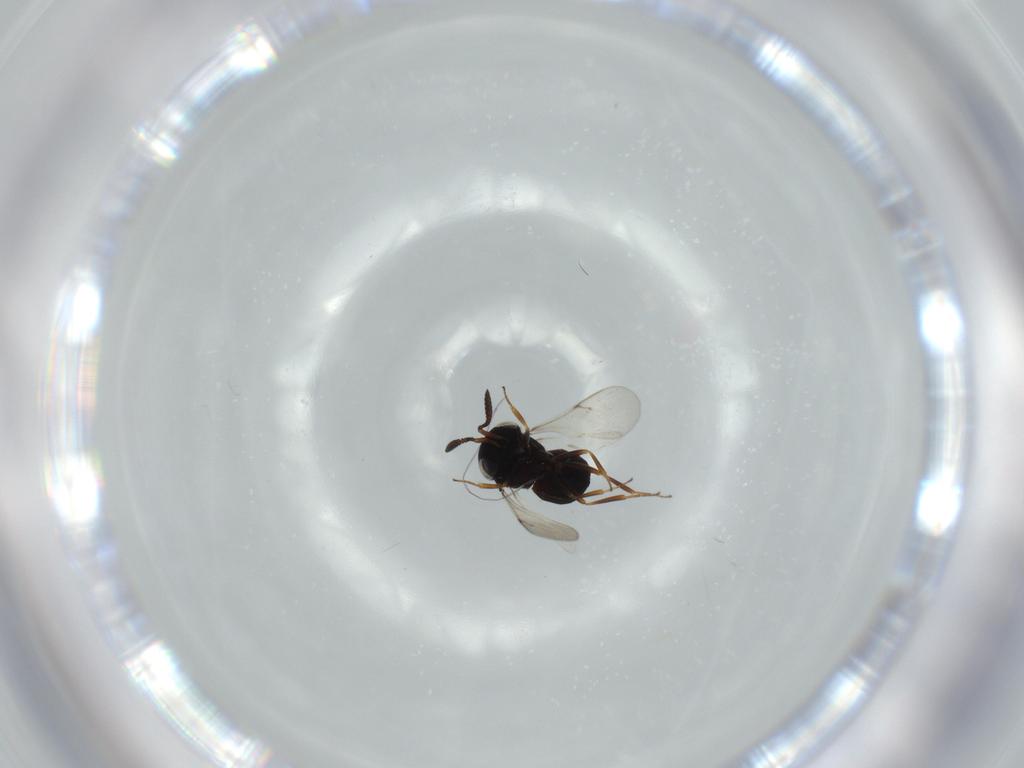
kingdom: Animalia
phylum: Arthropoda
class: Insecta
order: Hymenoptera
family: Scelionidae
